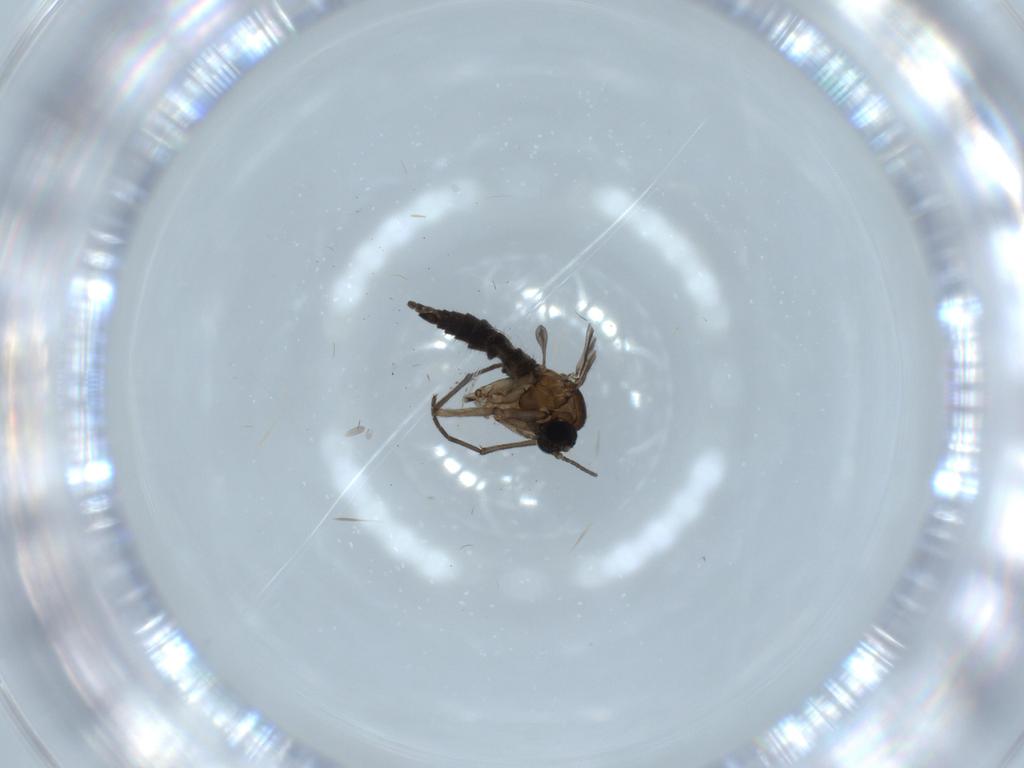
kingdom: Animalia
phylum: Arthropoda
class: Insecta
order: Diptera
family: Sciaridae
